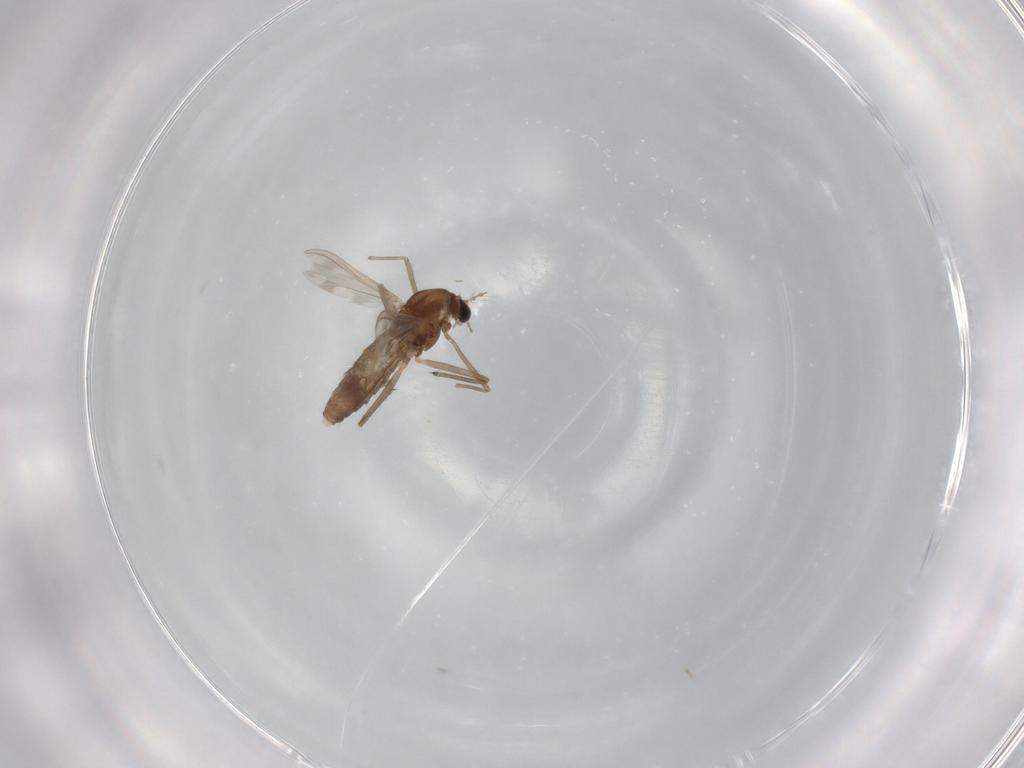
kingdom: Animalia
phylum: Arthropoda
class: Insecta
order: Diptera
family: Chironomidae
